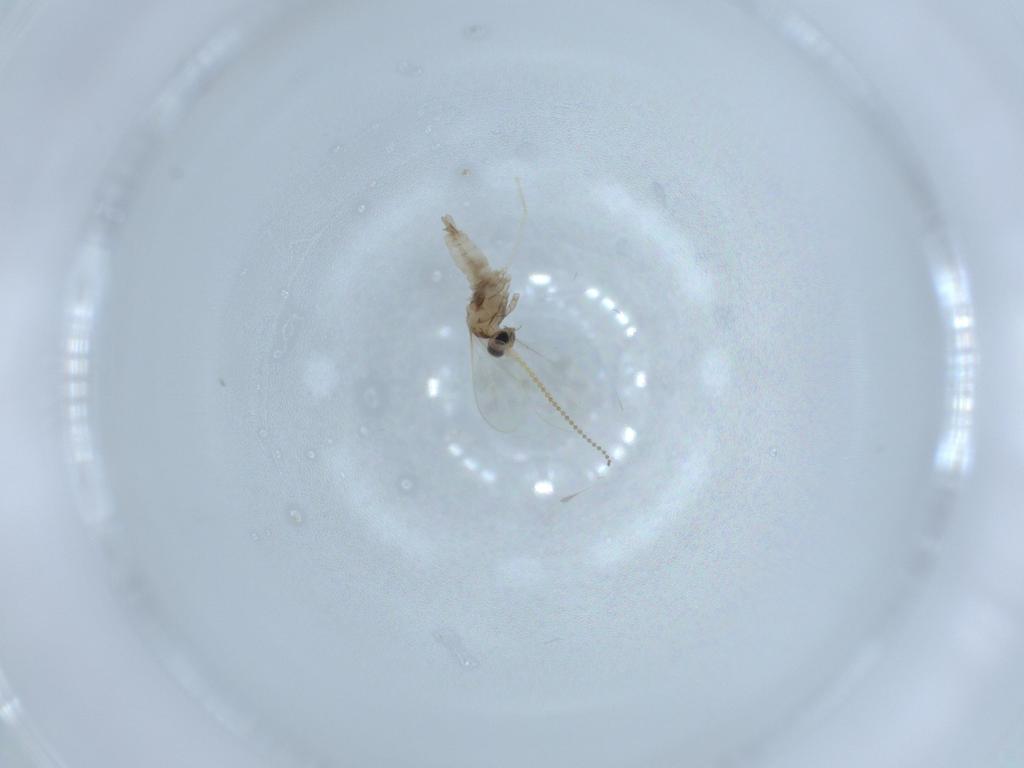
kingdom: Animalia
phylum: Arthropoda
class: Insecta
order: Diptera
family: Cecidomyiidae
